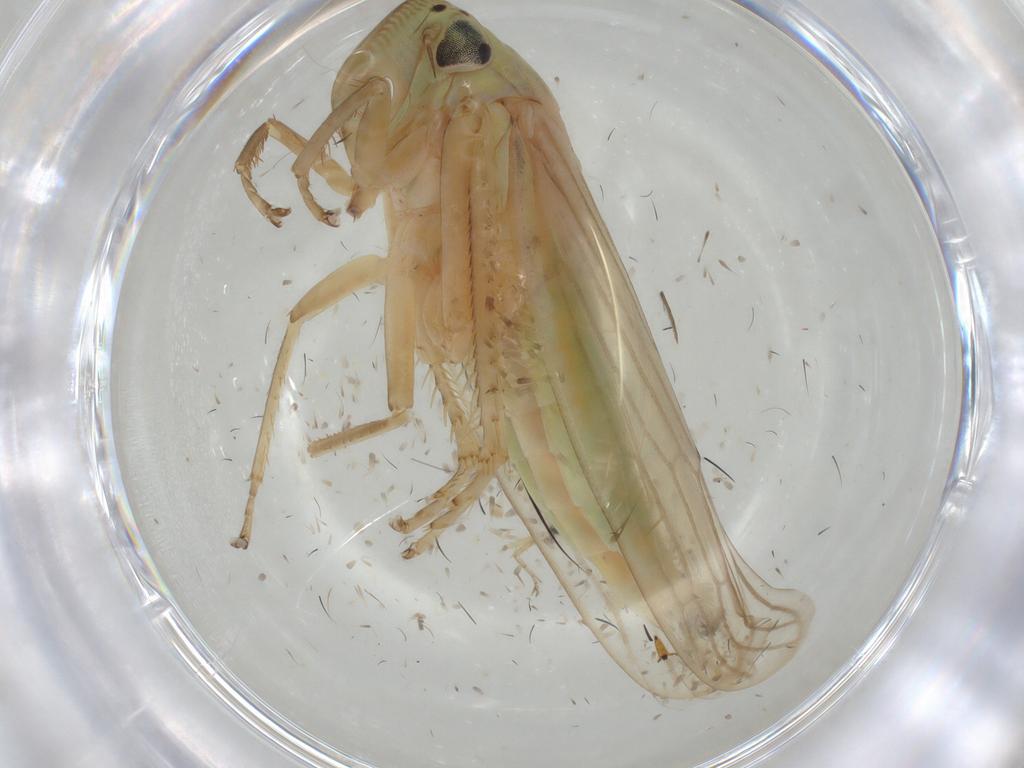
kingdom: Animalia
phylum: Arthropoda
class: Insecta
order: Hemiptera
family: Cicadellidae
